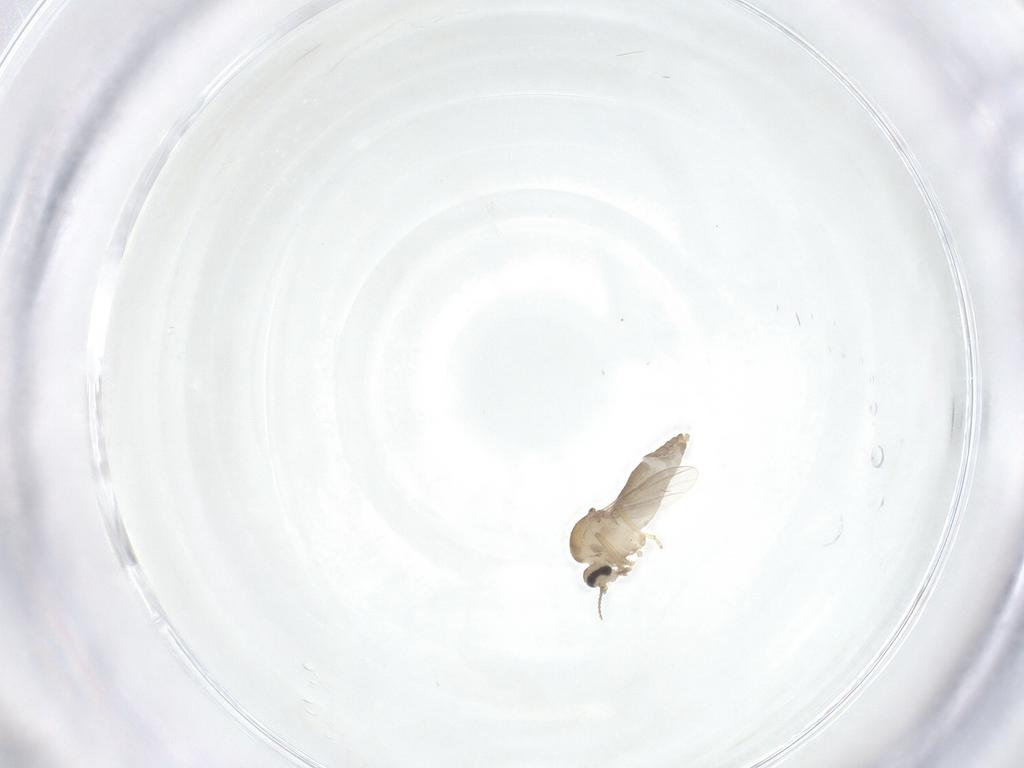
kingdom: Animalia
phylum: Arthropoda
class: Insecta
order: Diptera
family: Ceratopogonidae
